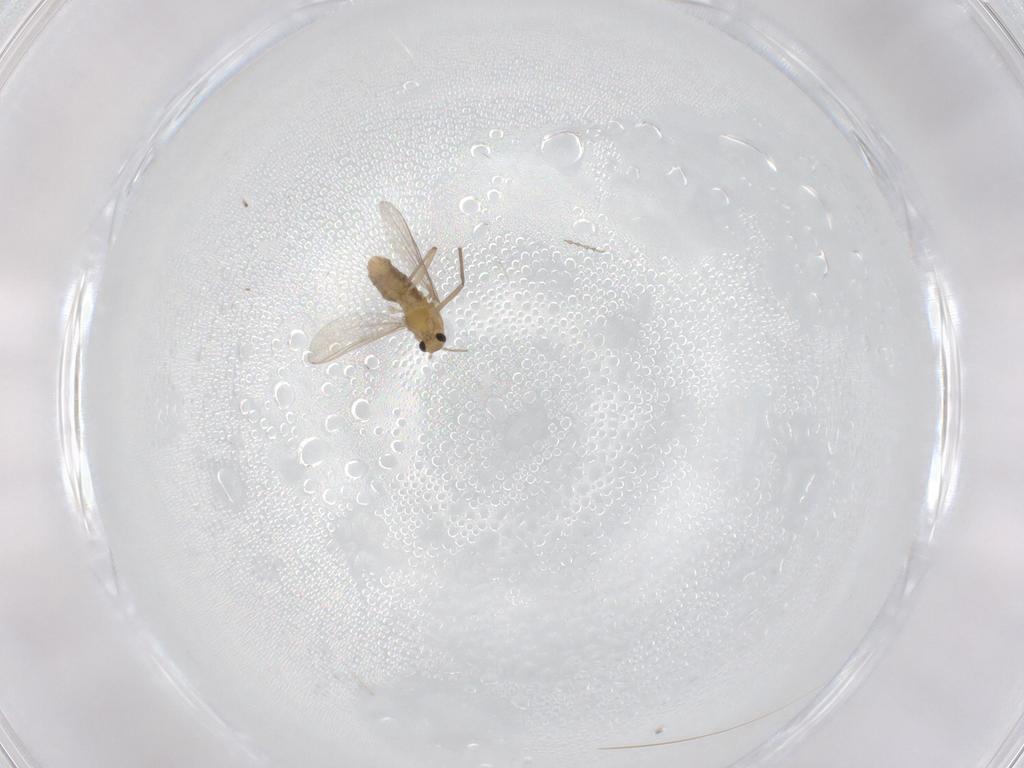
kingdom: Animalia
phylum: Arthropoda
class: Insecta
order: Diptera
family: Chironomidae
